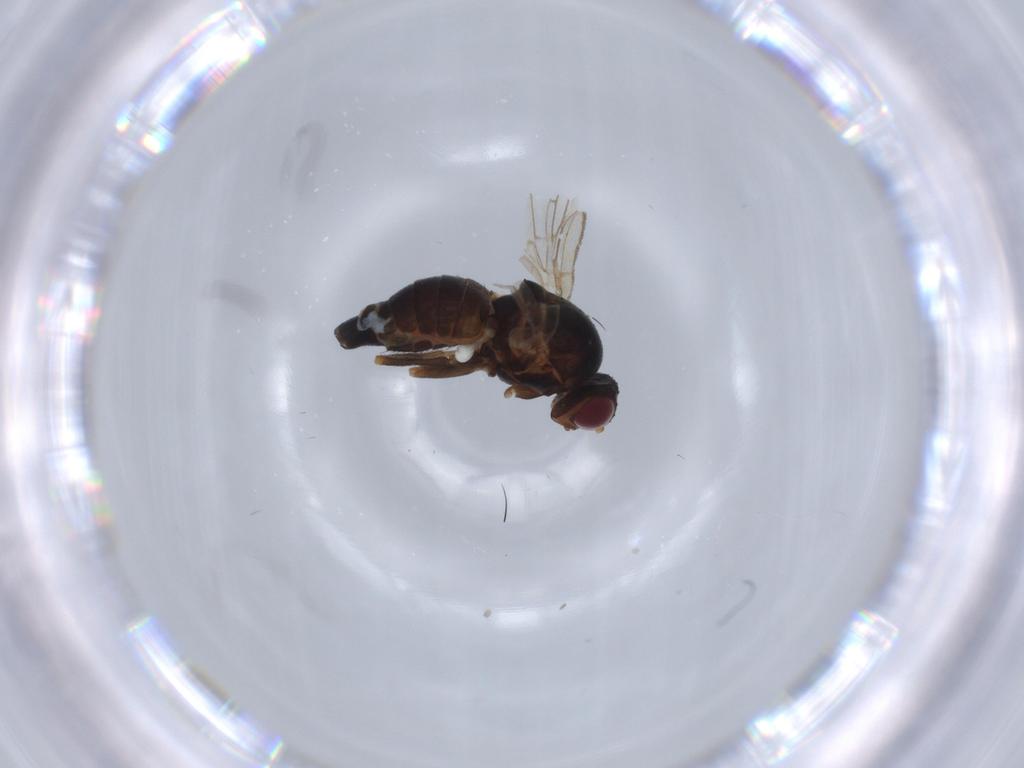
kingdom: Animalia
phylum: Arthropoda
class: Insecta
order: Diptera
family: Empididae
